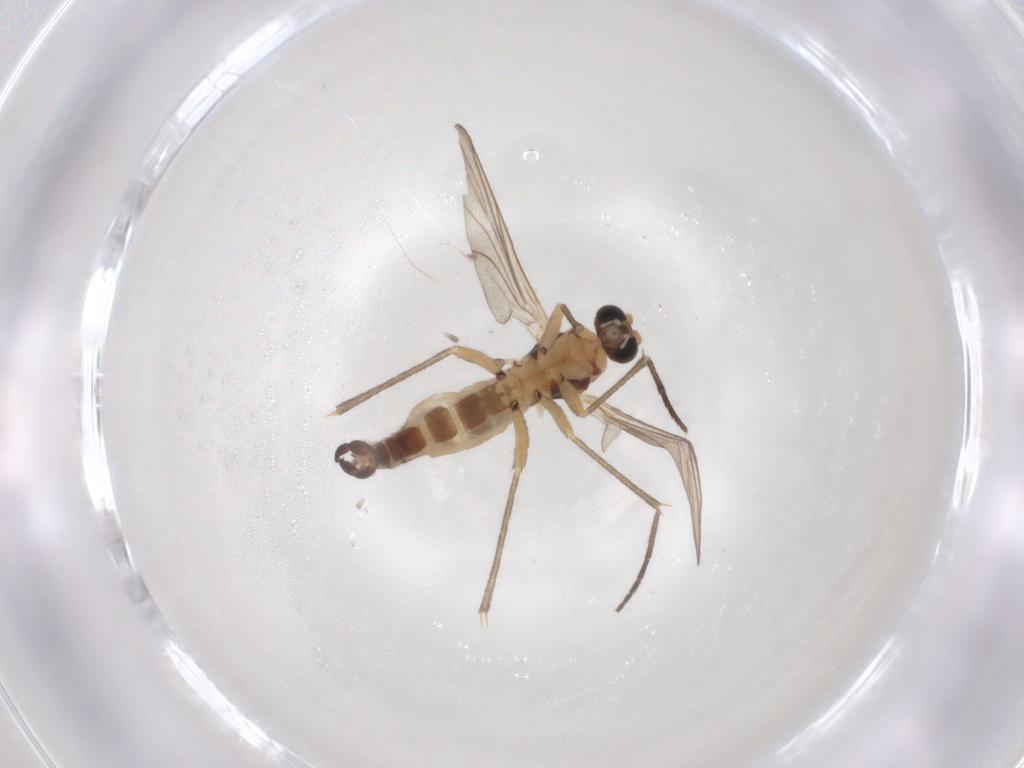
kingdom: Animalia
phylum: Arthropoda
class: Insecta
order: Diptera
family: Sciaridae
